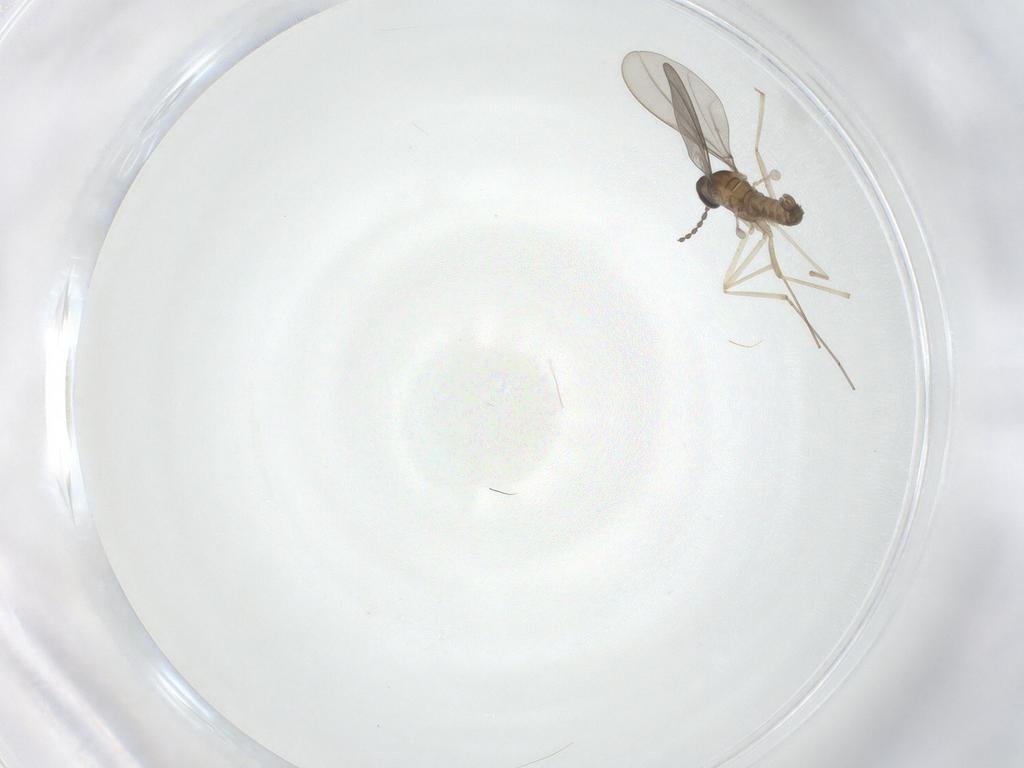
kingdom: Animalia
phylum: Arthropoda
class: Insecta
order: Diptera
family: Cecidomyiidae
